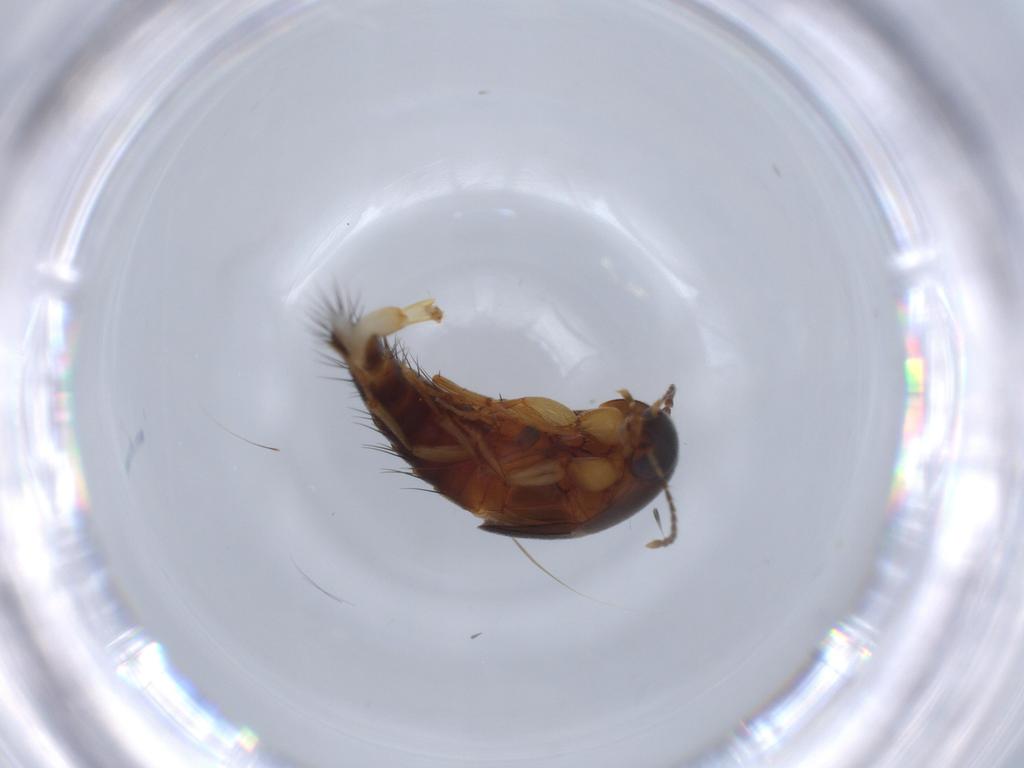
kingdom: Animalia
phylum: Arthropoda
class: Insecta
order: Coleoptera
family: Staphylinidae
